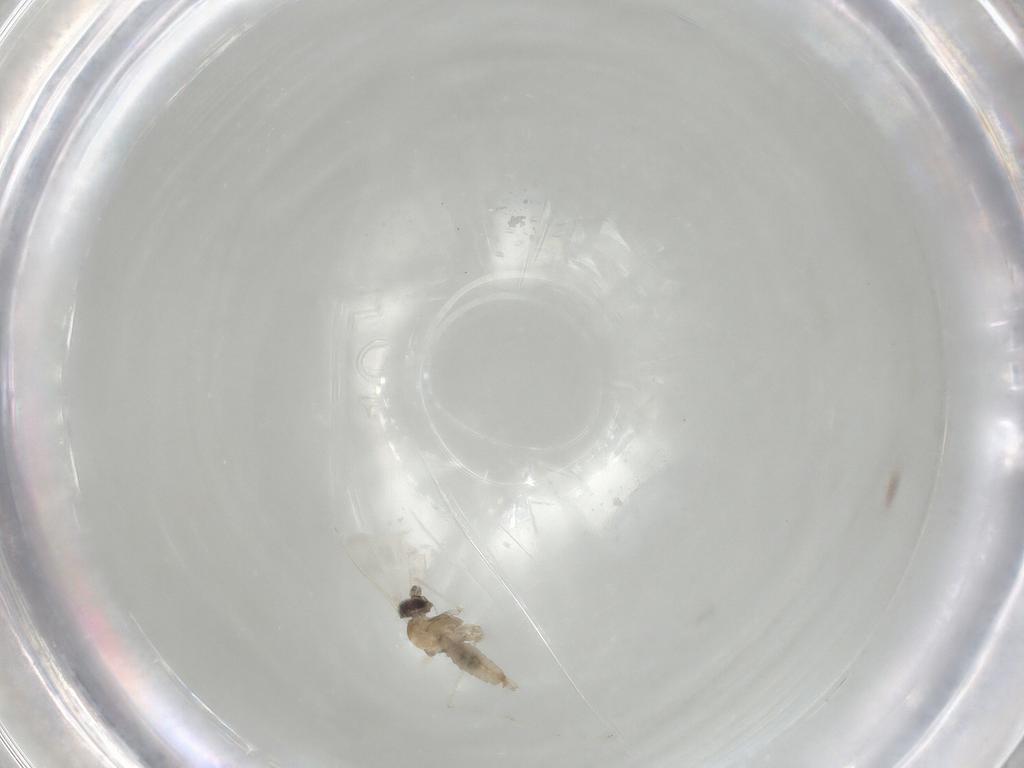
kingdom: Animalia
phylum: Arthropoda
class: Insecta
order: Diptera
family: Cecidomyiidae
